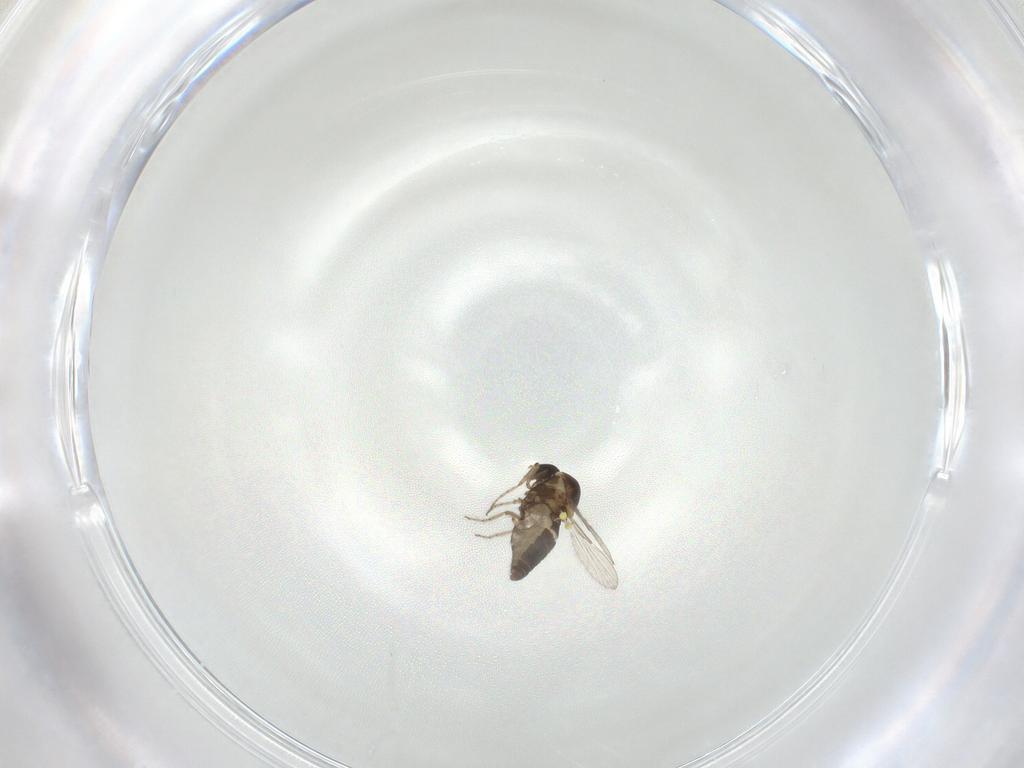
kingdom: Animalia
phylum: Arthropoda
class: Insecta
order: Diptera
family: Ceratopogonidae
